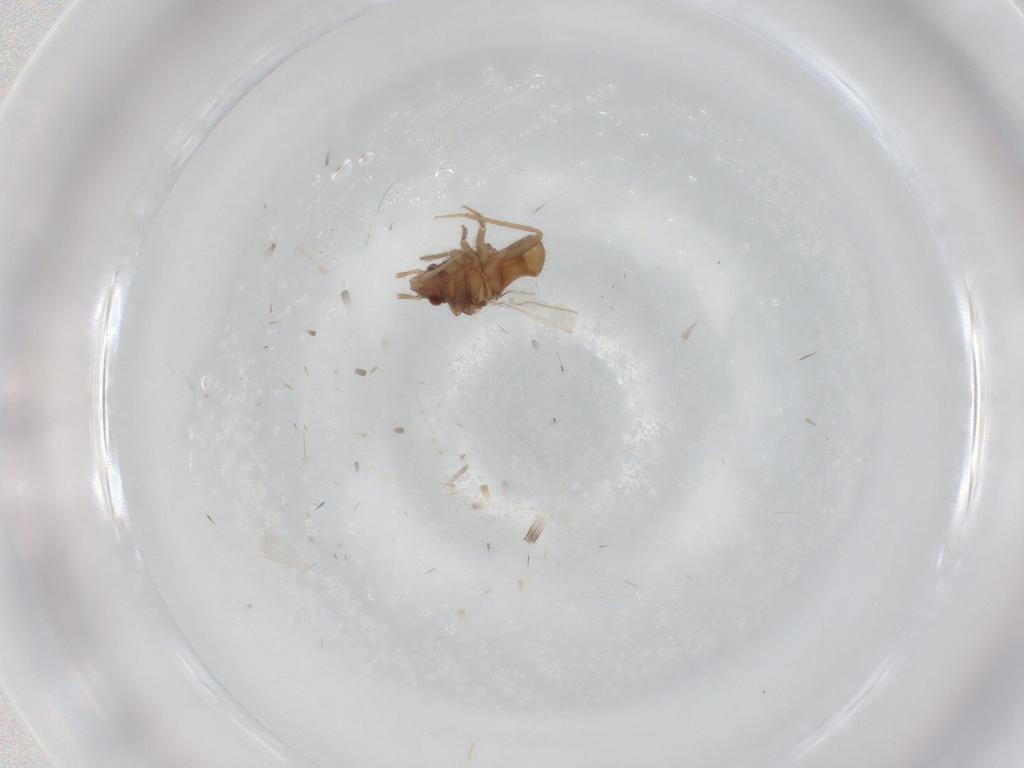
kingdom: Animalia
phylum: Arthropoda
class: Insecta
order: Hemiptera
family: Ceratocombidae
